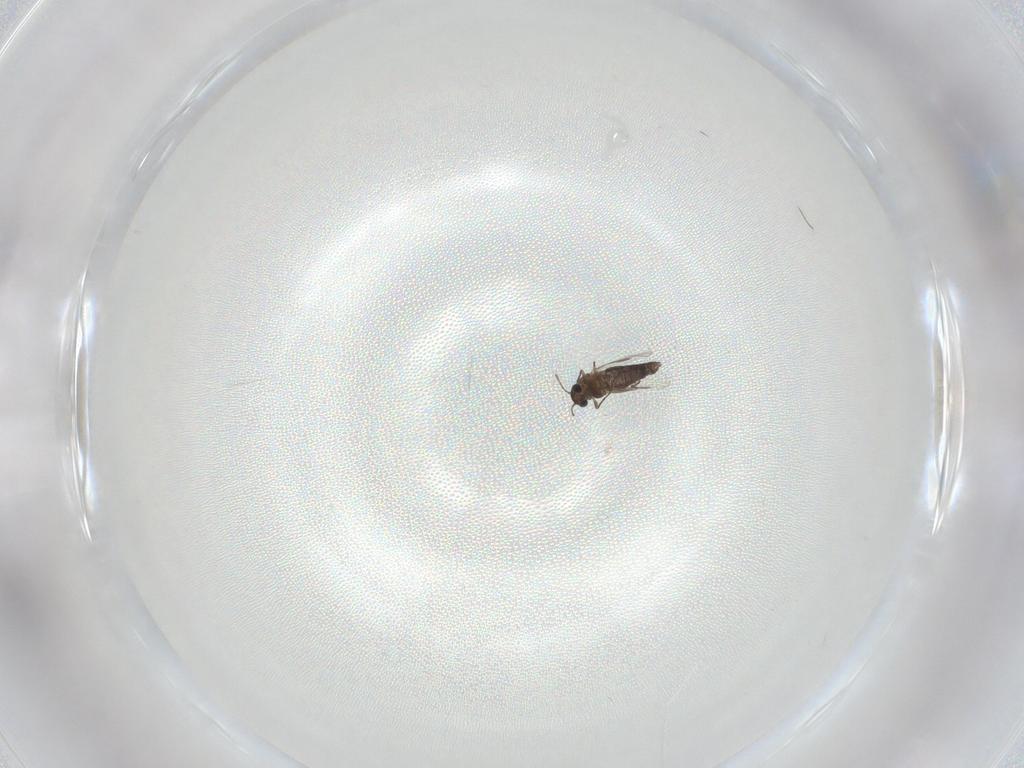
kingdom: Animalia
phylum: Arthropoda
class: Insecta
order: Diptera
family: Chironomidae
